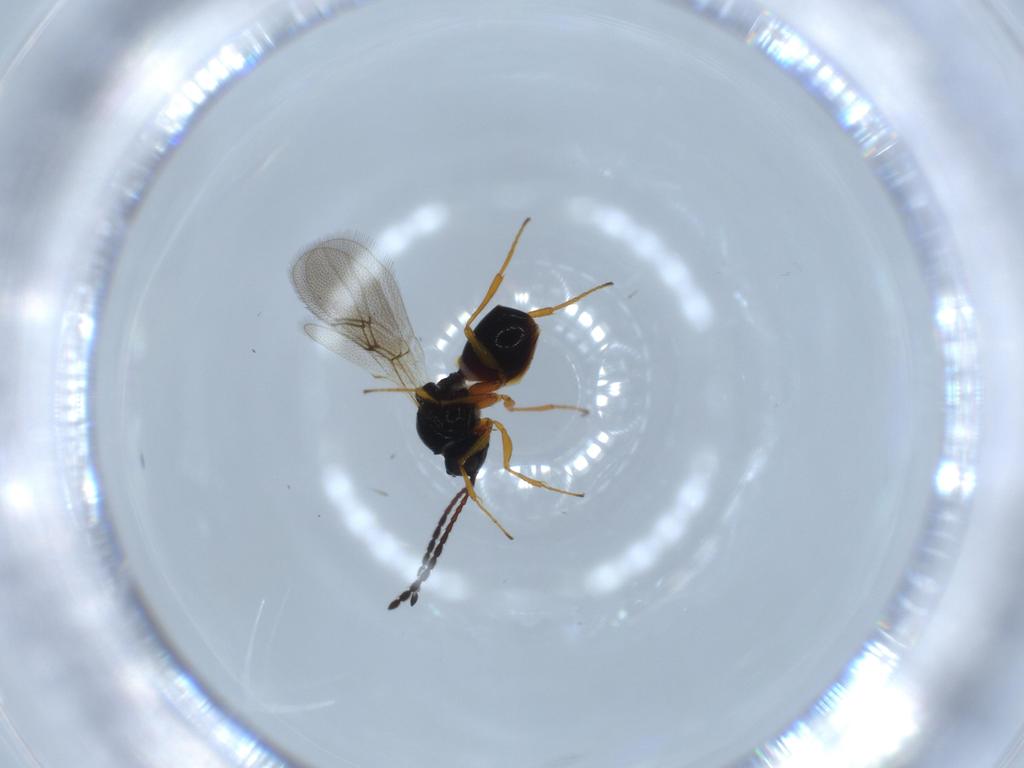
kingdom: Animalia
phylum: Arthropoda
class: Insecta
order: Hymenoptera
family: Figitidae
